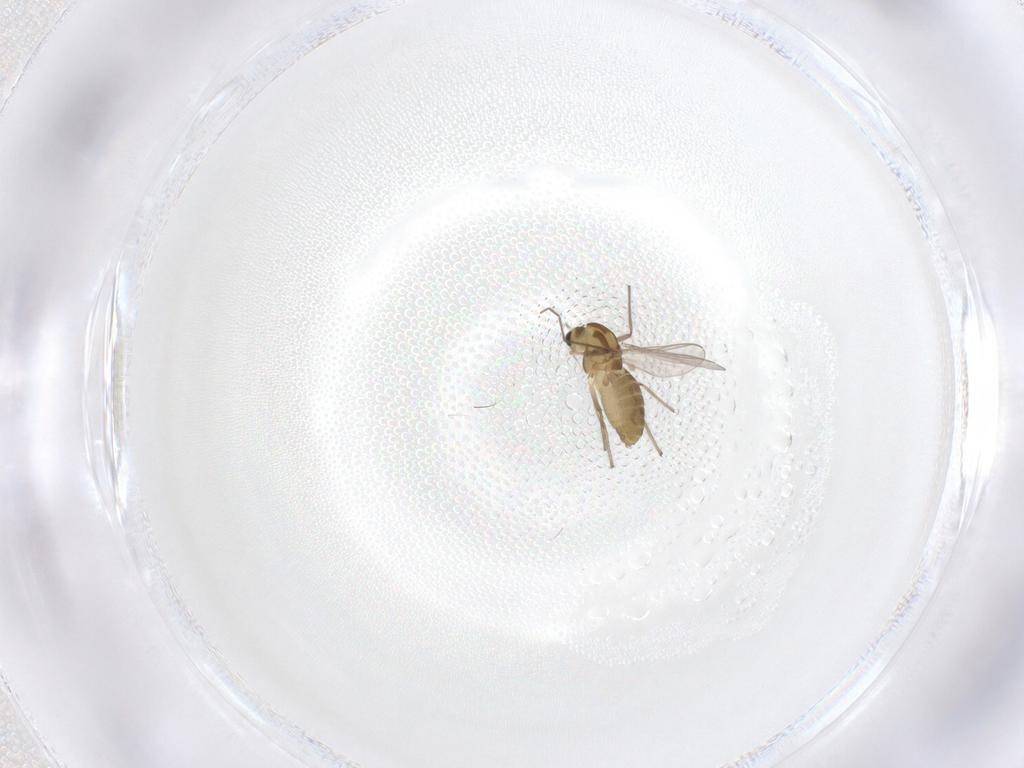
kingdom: Animalia
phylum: Arthropoda
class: Insecta
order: Diptera
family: Chironomidae
